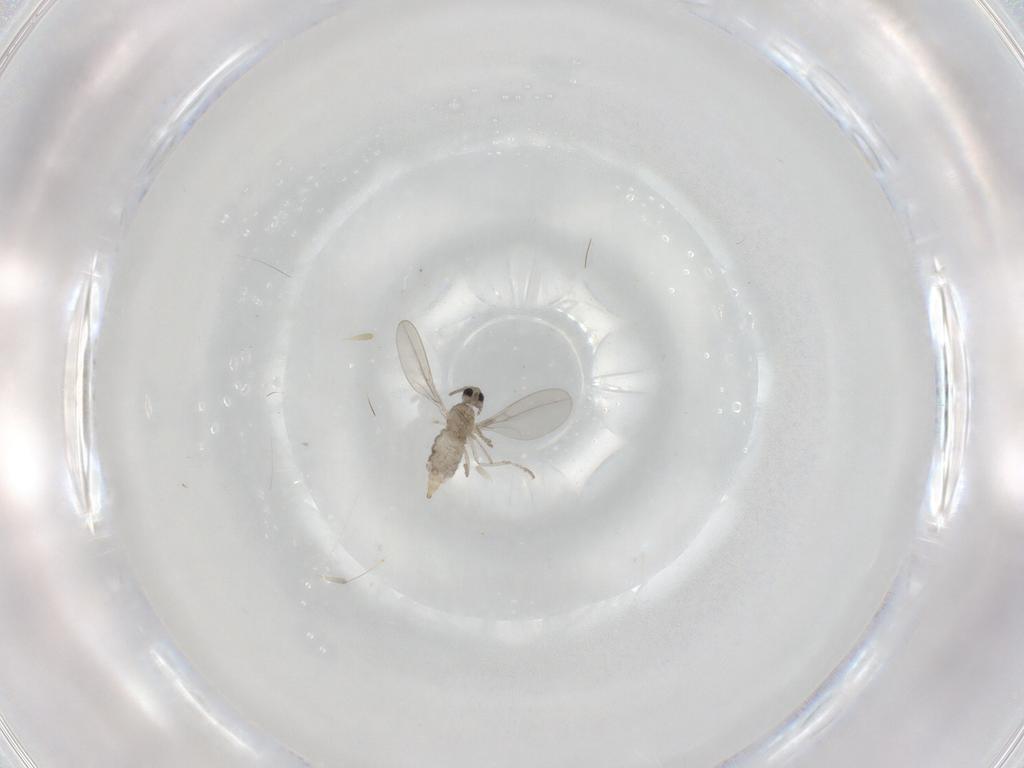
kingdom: Animalia
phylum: Arthropoda
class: Insecta
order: Diptera
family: Cecidomyiidae
